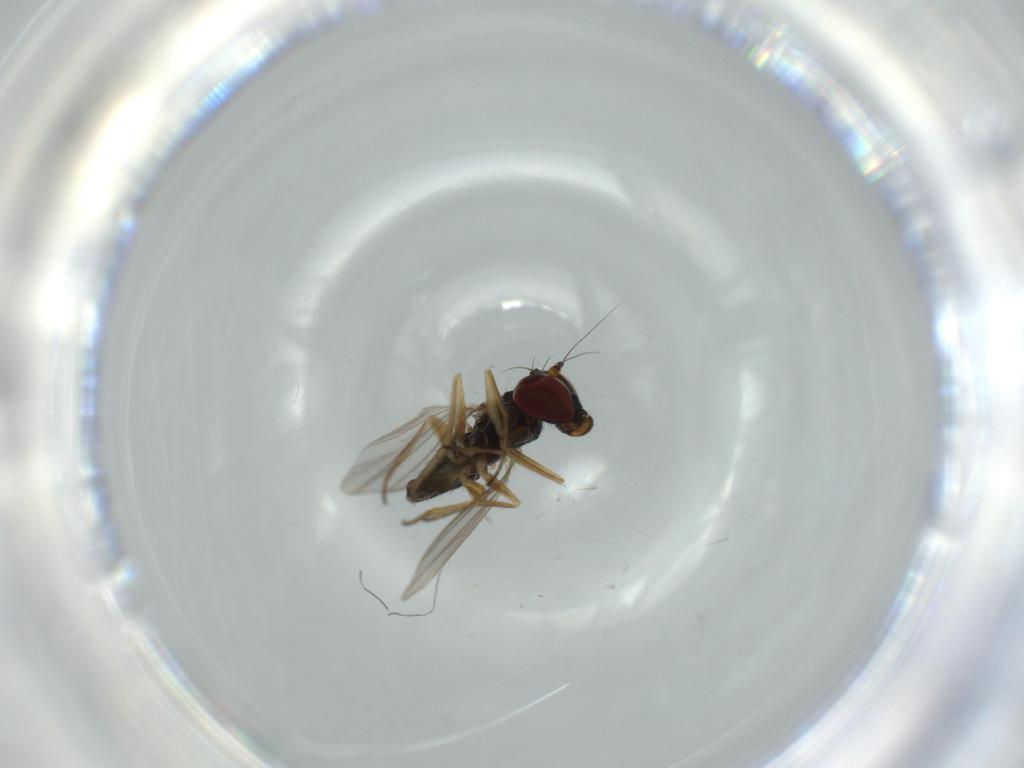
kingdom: Animalia
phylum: Arthropoda
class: Insecta
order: Diptera
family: Dolichopodidae
